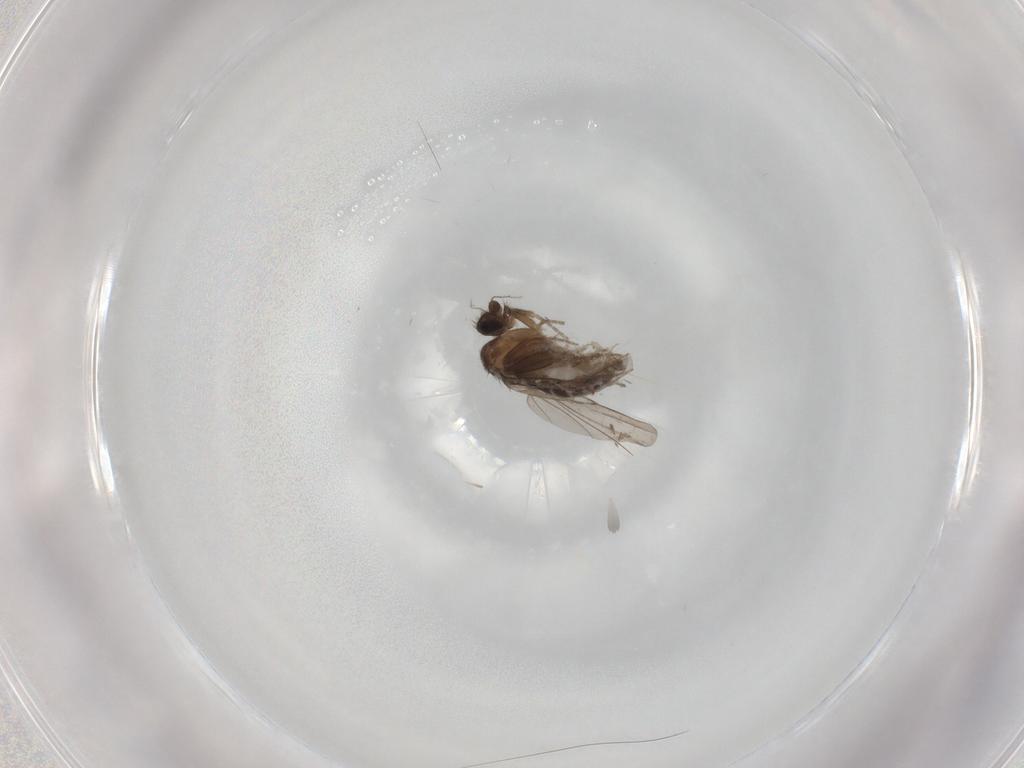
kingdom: Animalia
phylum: Arthropoda
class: Insecta
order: Diptera
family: Phoridae
